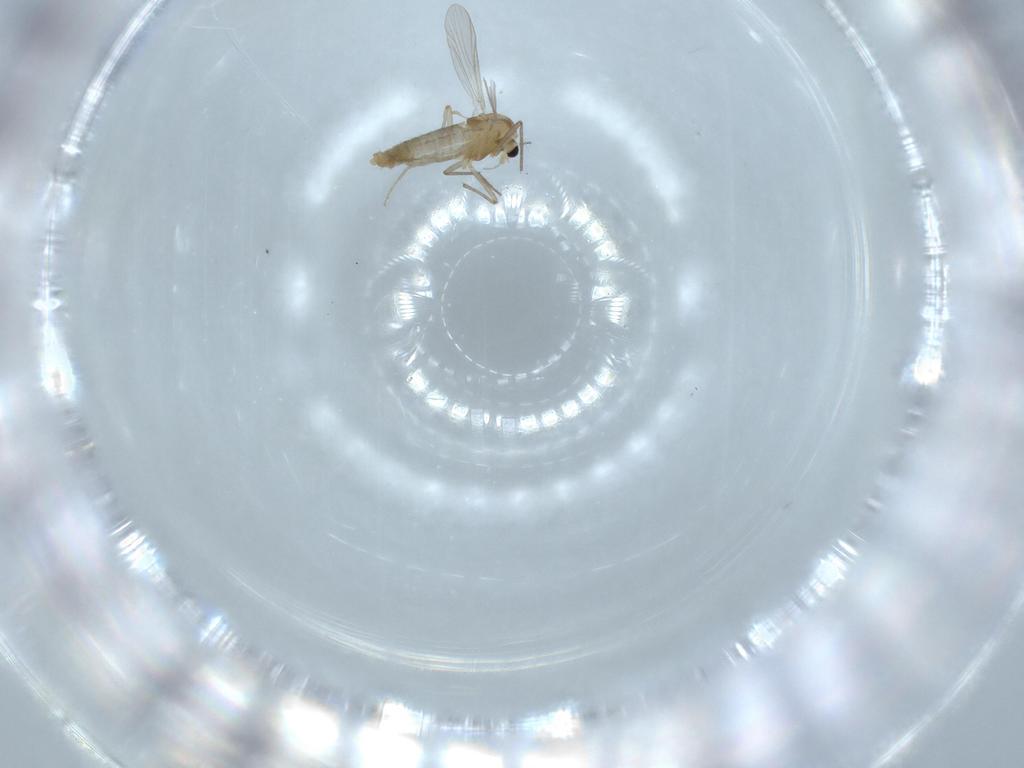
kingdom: Animalia
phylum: Arthropoda
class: Insecta
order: Diptera
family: Chironomidae
